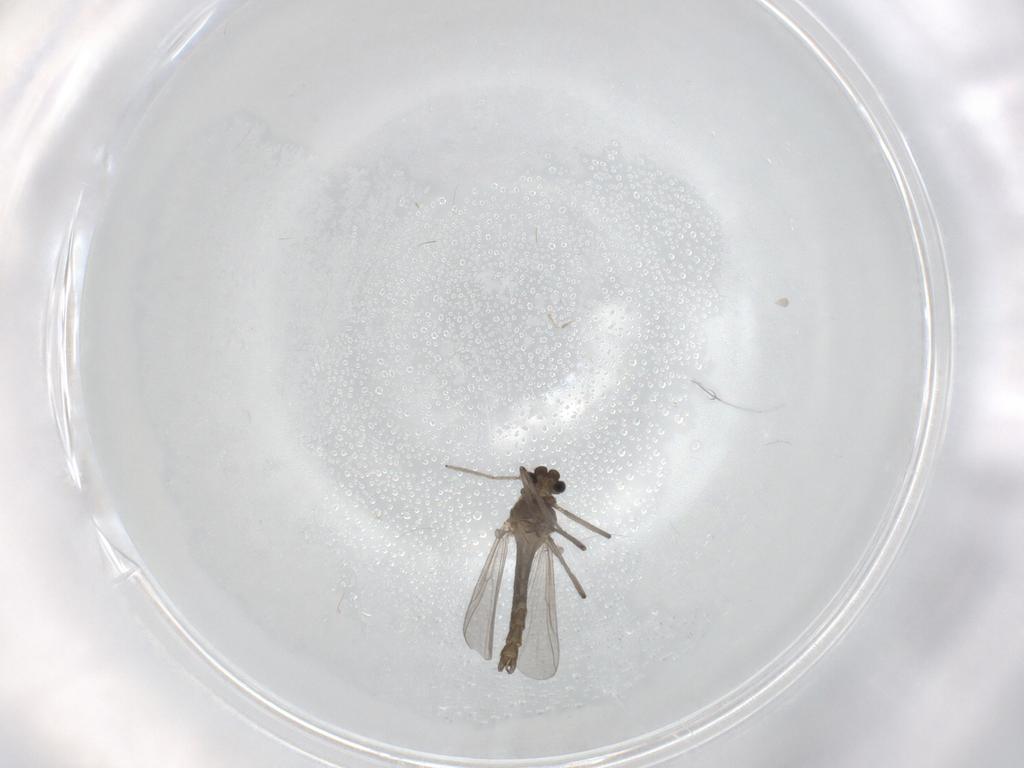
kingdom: Animalia
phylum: Arthropoda
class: Insecta
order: Diptera
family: Chironomidae
